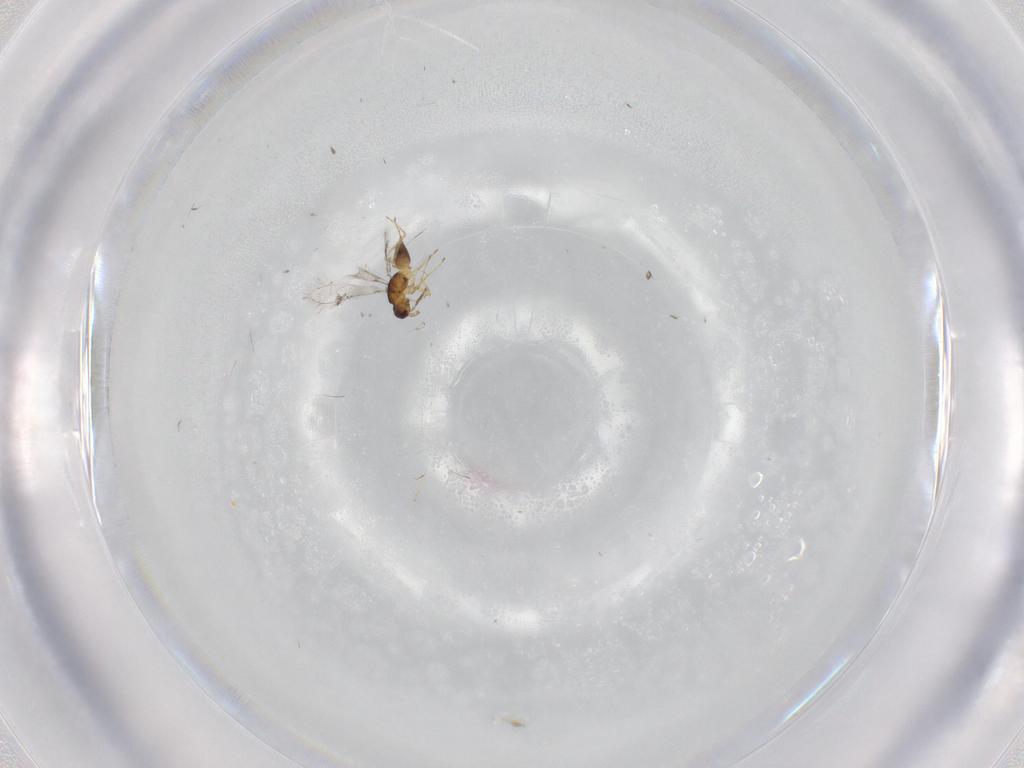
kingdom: Animalia
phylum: Arthropoda
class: Insecta
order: Hymenoptera
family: Mymaridae
